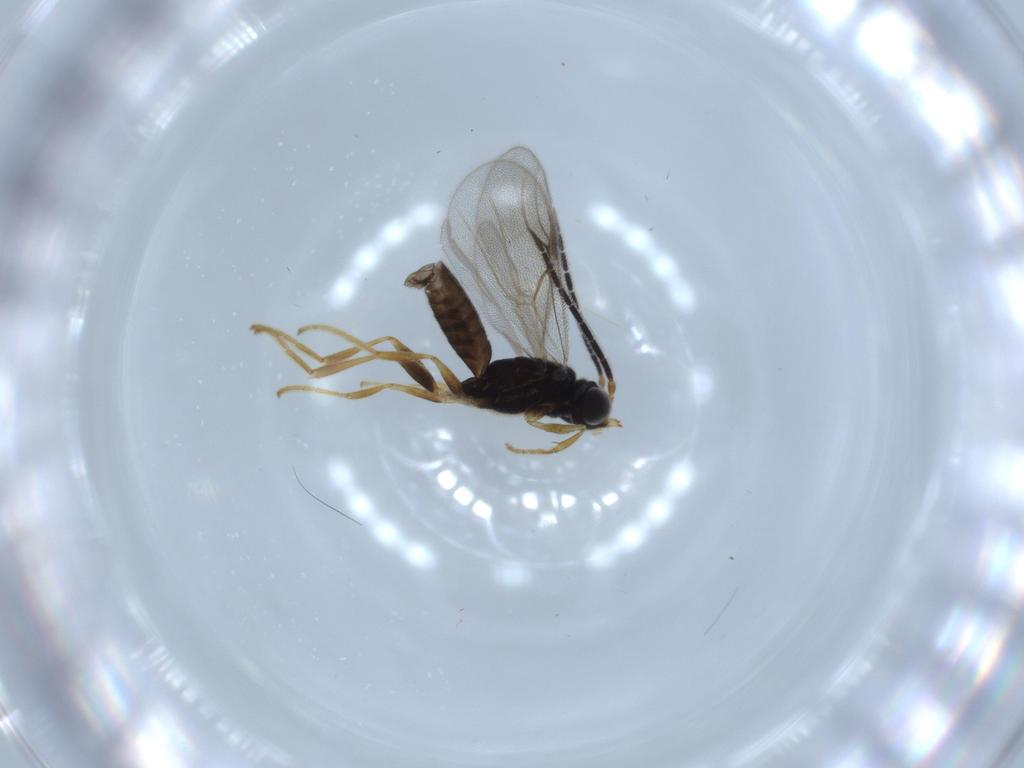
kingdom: Animalia
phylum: Arthropoda
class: Insecta
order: Hymenoptera
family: Dryinidae
